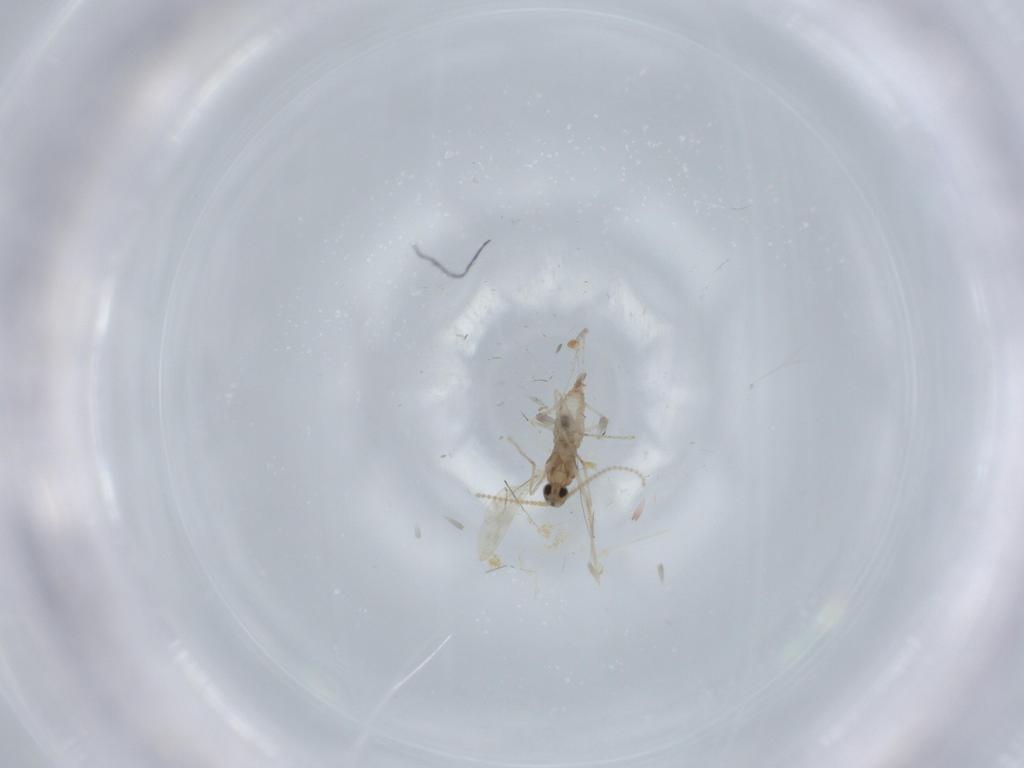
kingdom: Animalia
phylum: Arthropoda
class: Insecta
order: Diptera
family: Cecidomyiidae
